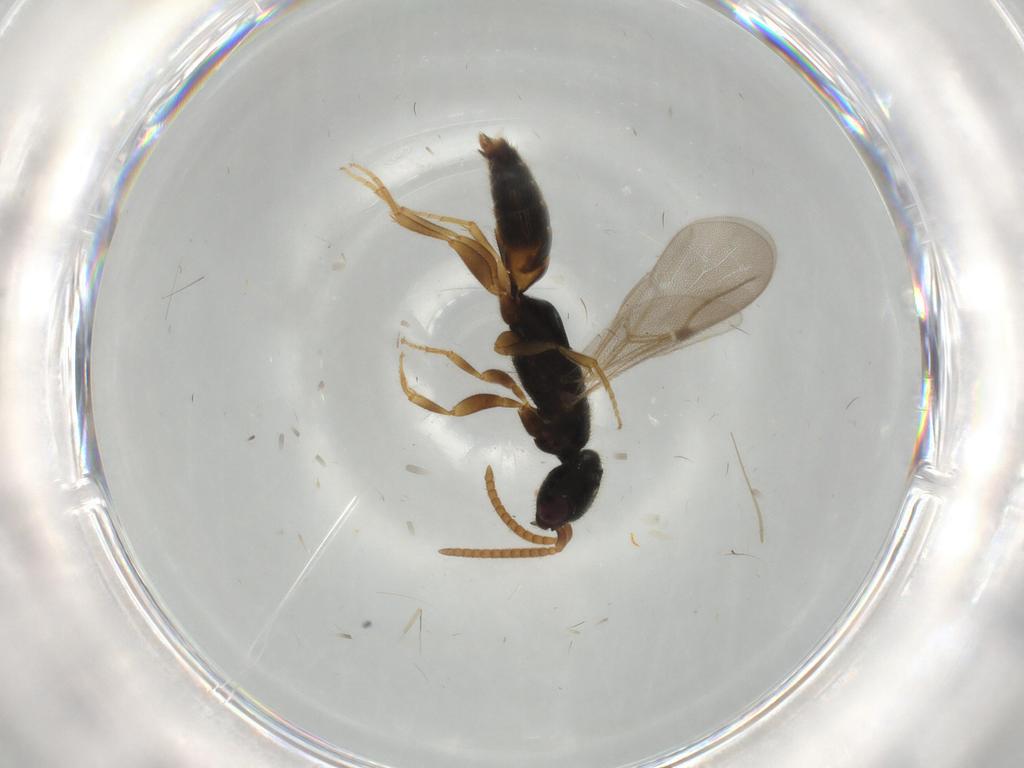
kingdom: Animalia
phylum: Arthropoda
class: Insecta
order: Hymenoptera
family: Bethylidae
